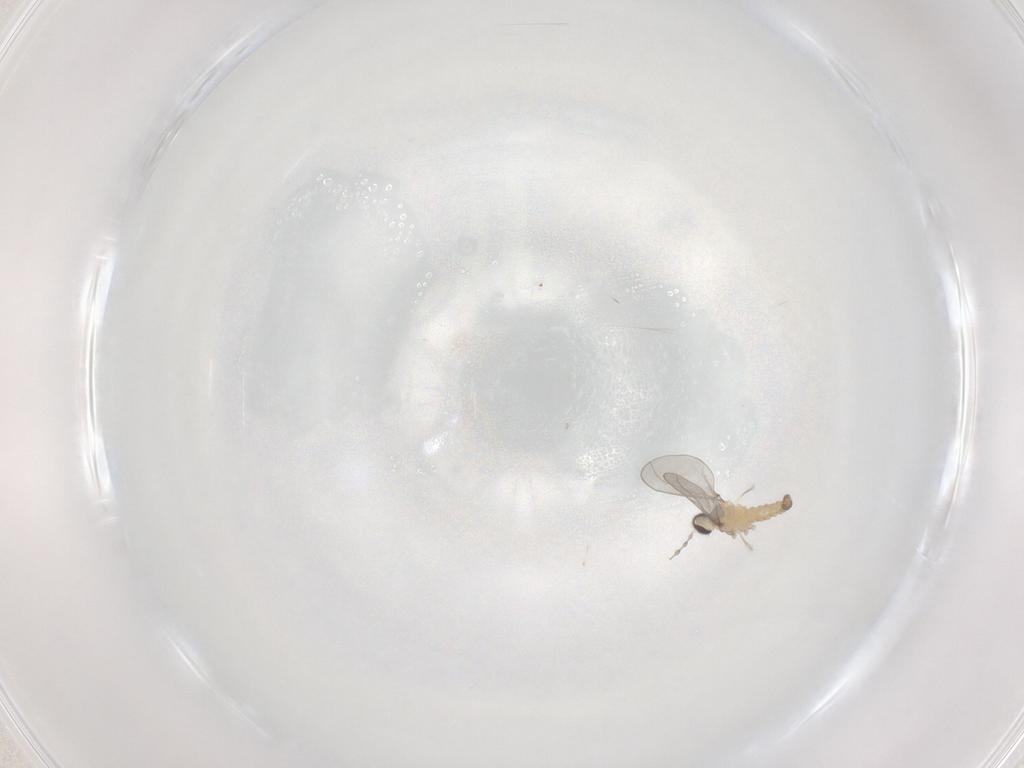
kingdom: Animalia
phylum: Arthropoda
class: Insecta
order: Diptera
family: Cecidomyiidae
